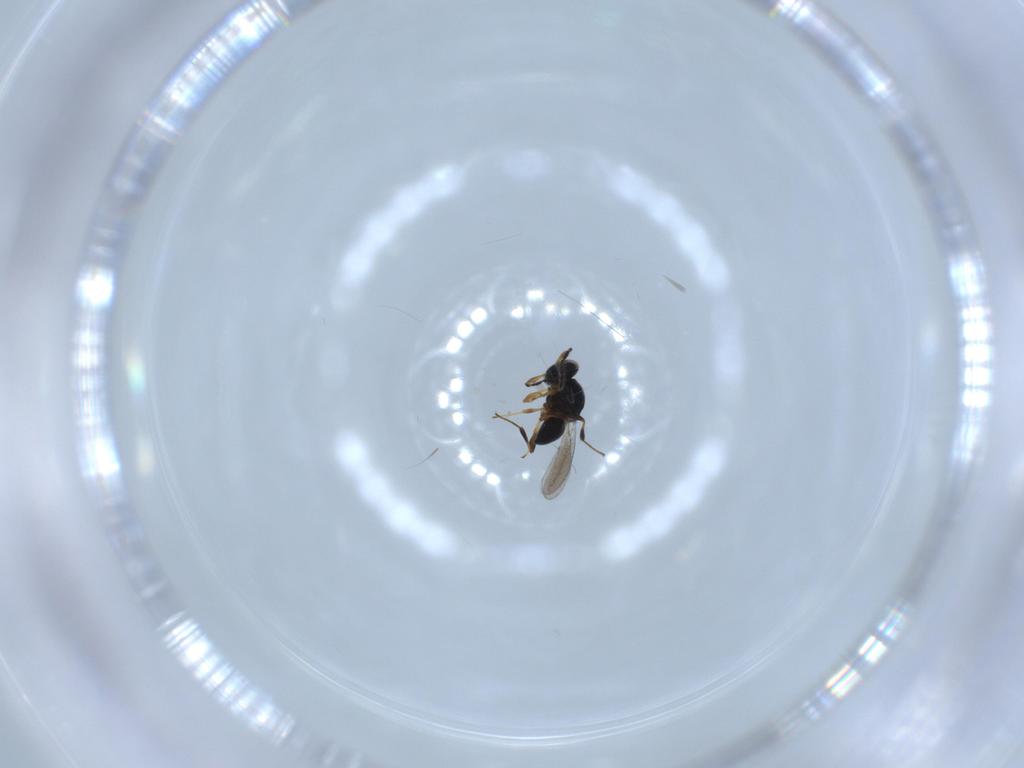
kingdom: Animalia
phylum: Arthropoda
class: Insecta
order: Hymenoptera
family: Platygastridae
